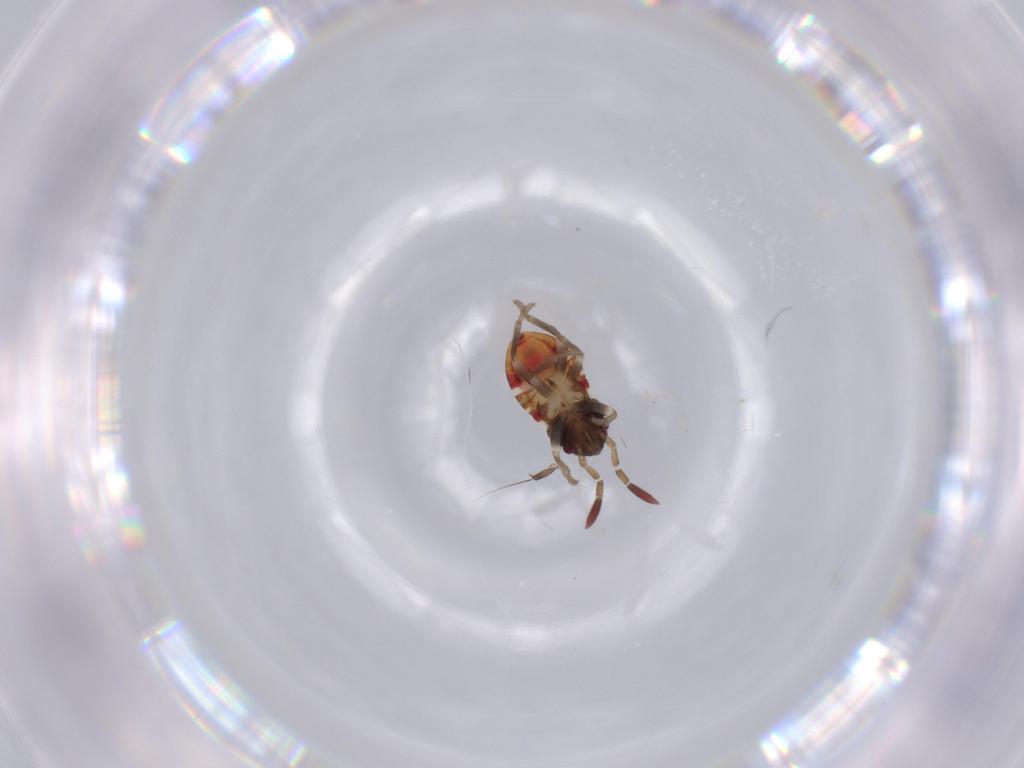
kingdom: Animalia
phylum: Arthropoda
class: Insecta
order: Hemiptera
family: Rhyparochromidae
